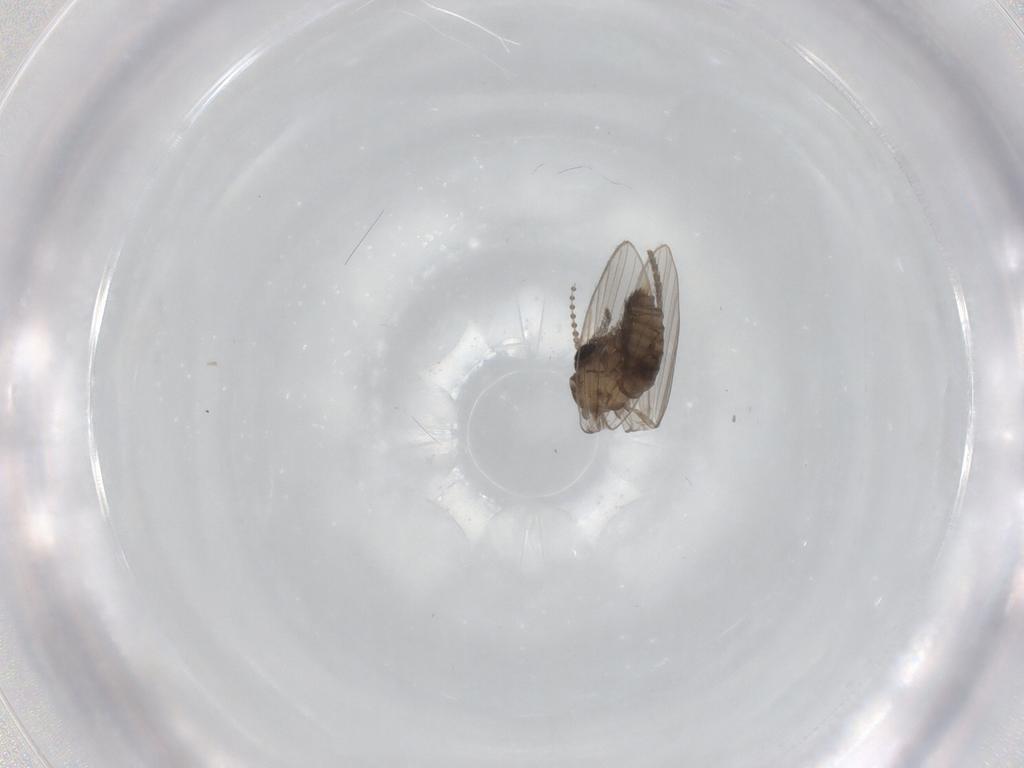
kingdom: Animalia
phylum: Arthropoda
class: Insecta
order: Diptera
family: Psychodidae
